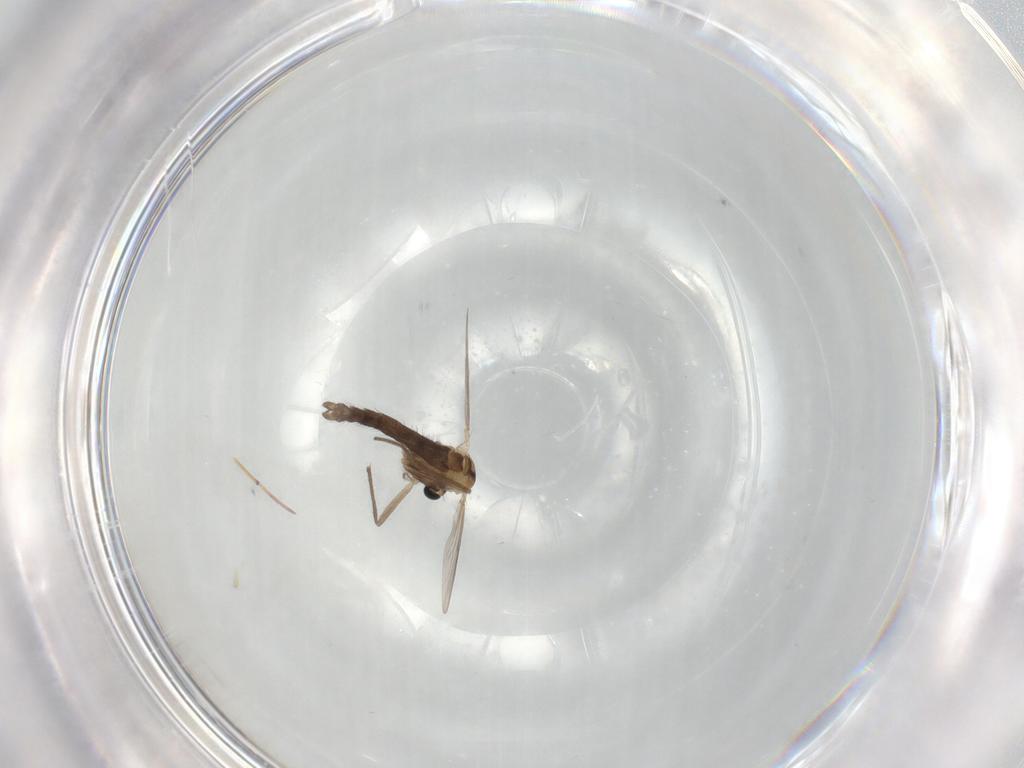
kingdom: Animalia
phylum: Arthropoda
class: Insecta
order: Diptera
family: Chironomidae
